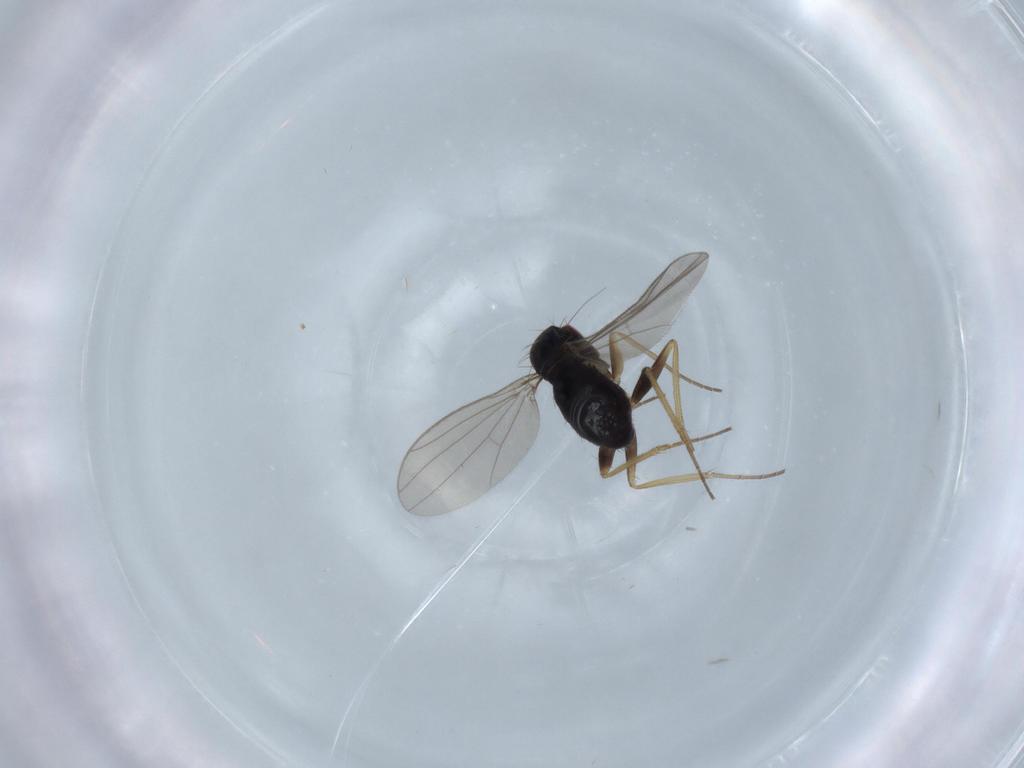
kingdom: Animalia
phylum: Arthropoda
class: Insecta
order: Diptera
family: Dolichopodidae
